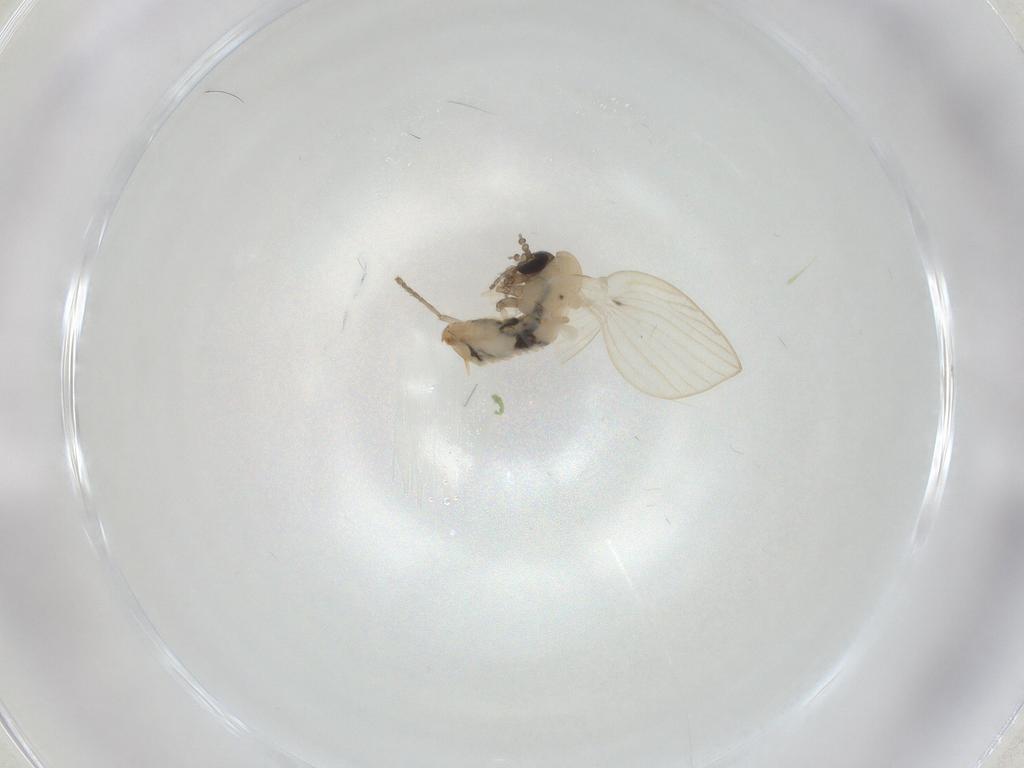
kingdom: Animalia
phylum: Arthropoda
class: Insecta
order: Diptera
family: Psychodidae
